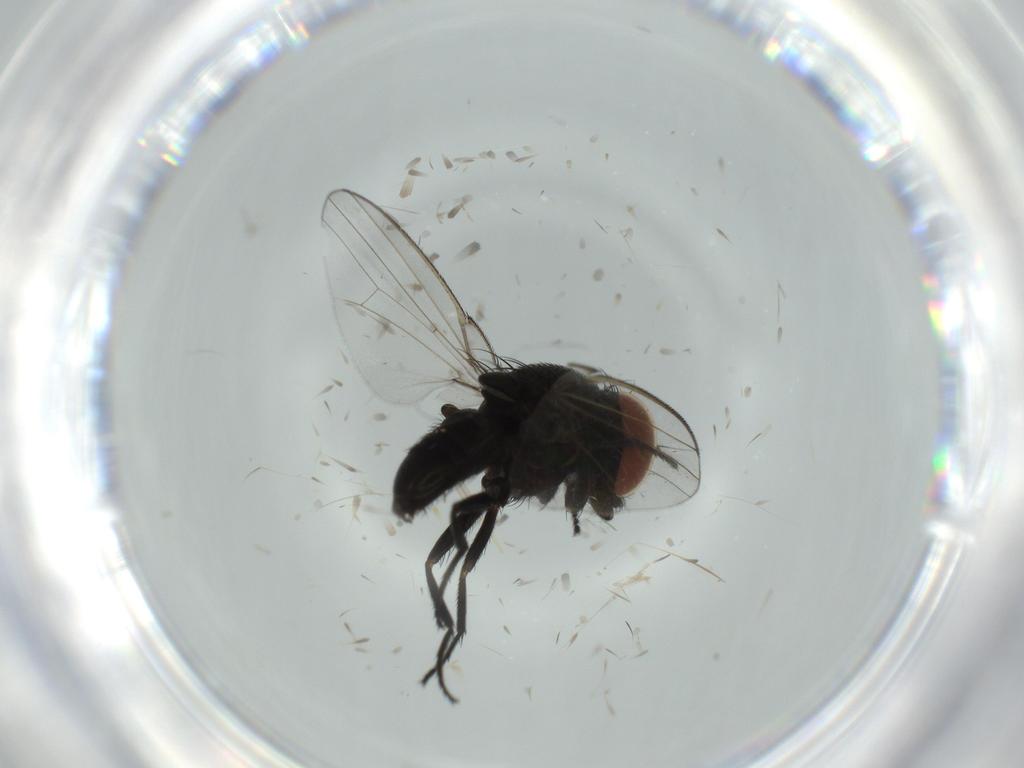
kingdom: Animalia
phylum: Arthropoda
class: Insecta
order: Diptera
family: Milichiidae
